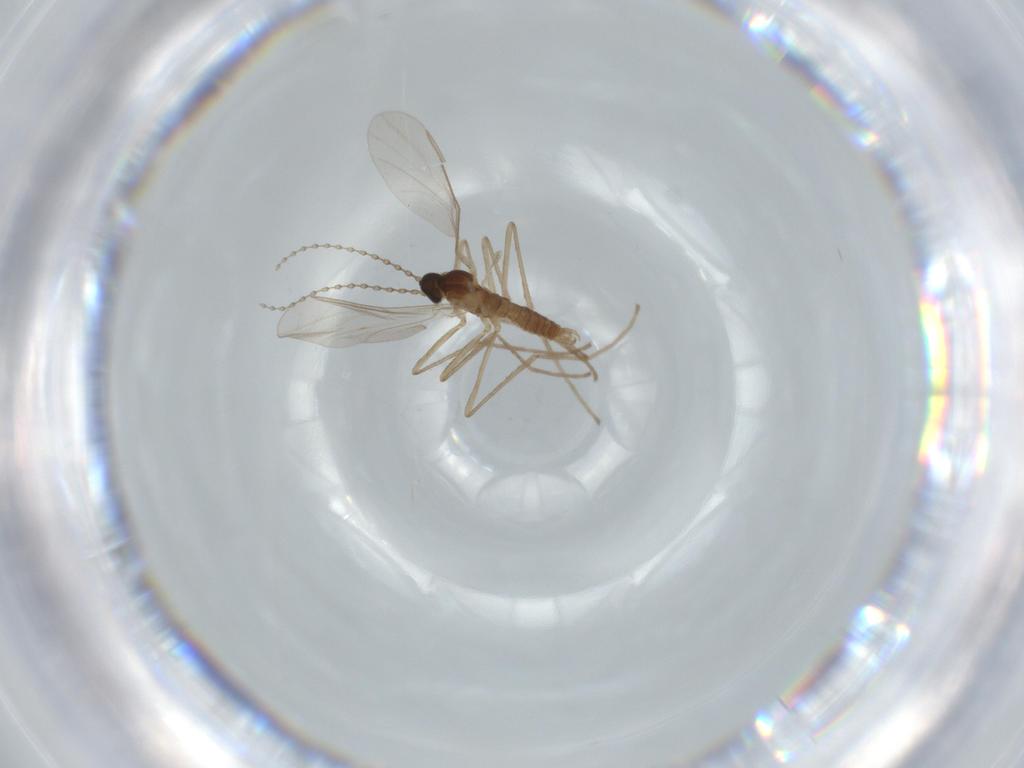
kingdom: Animalia
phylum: Arthropoda
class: Insecta
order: Diptera
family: Cecidomyiidae
